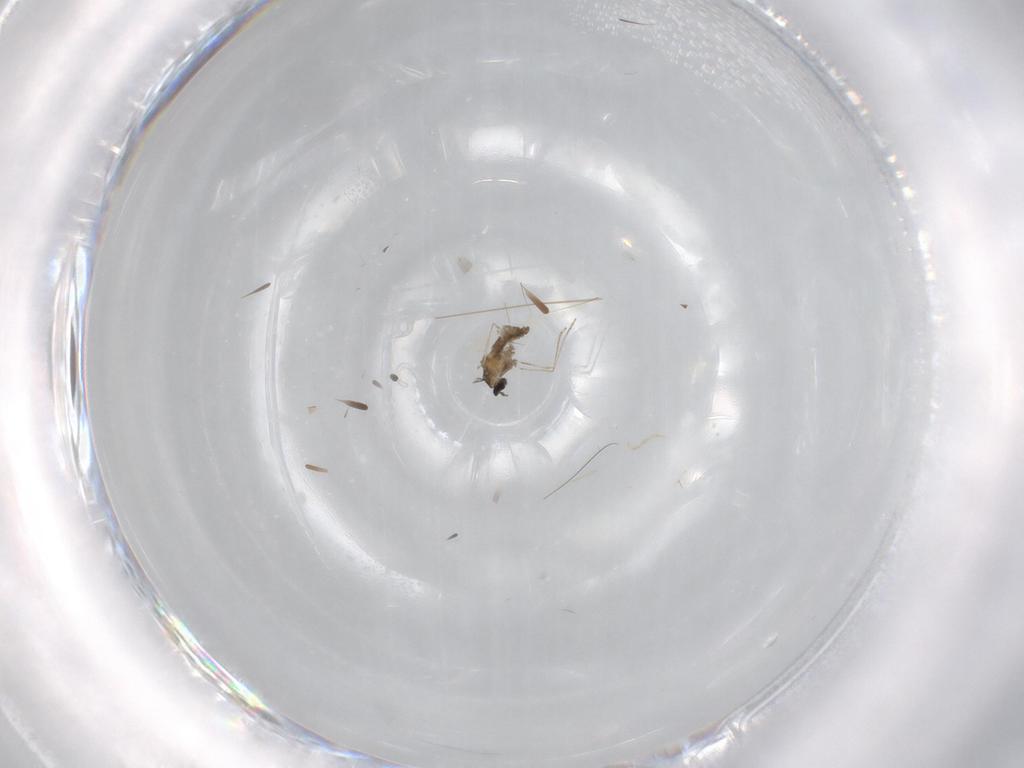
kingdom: Animalia
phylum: Arthropoda
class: Insecta
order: Diptera
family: Cecidomyiidae
